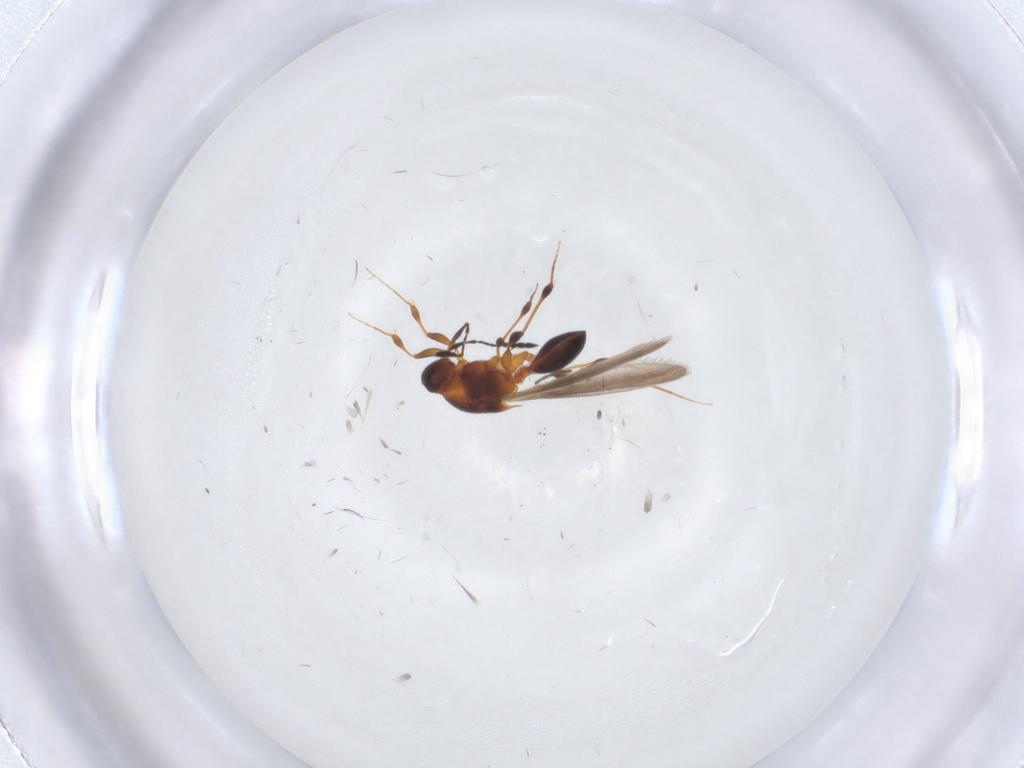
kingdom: Animalia
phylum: Arthropoda
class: Insecta
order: Hymenoptera
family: Platygastridae
